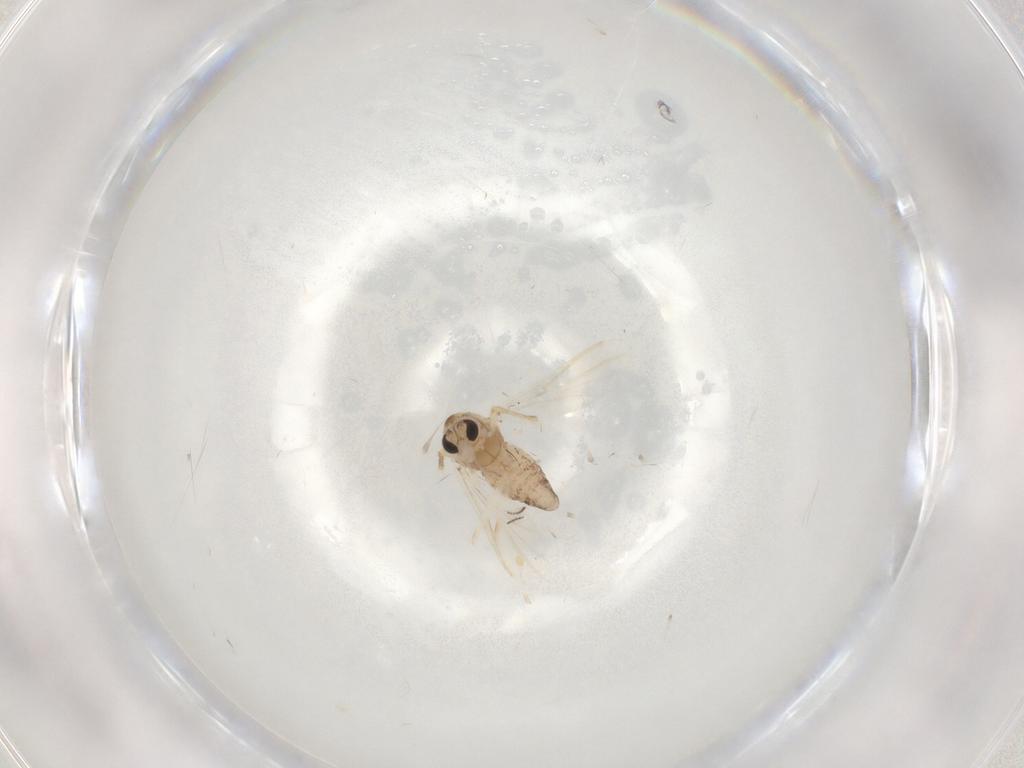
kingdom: Animalia
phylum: Arthropoda
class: Insecta
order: Diptera
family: Chironomidae
